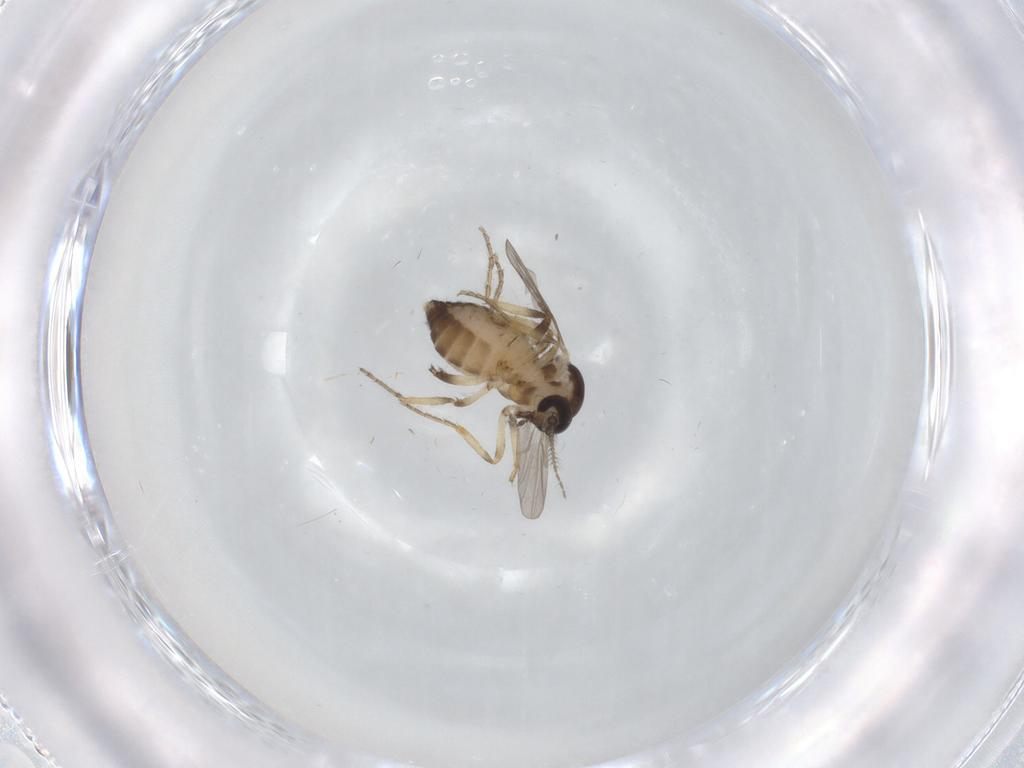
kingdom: Animalia
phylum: Arthropoda
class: Insecta
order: Diptera
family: Ceratopogonidae
